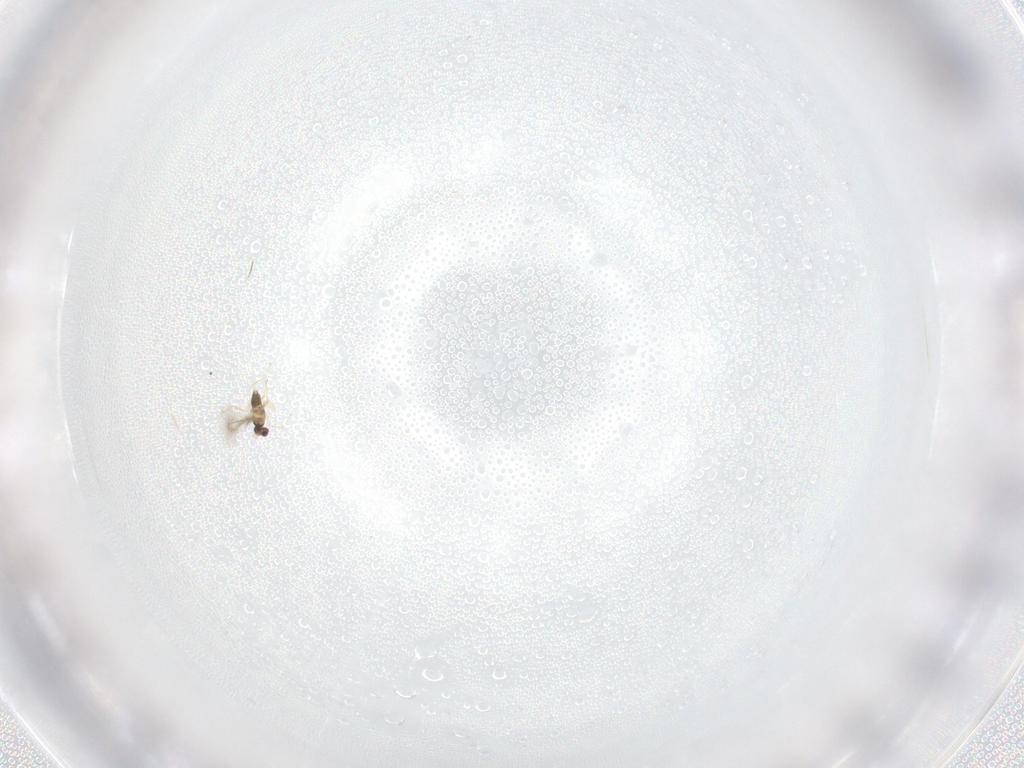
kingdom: Animalia
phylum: Arthropoda
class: Insecta
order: Hymenoptera
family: Mymaridae
